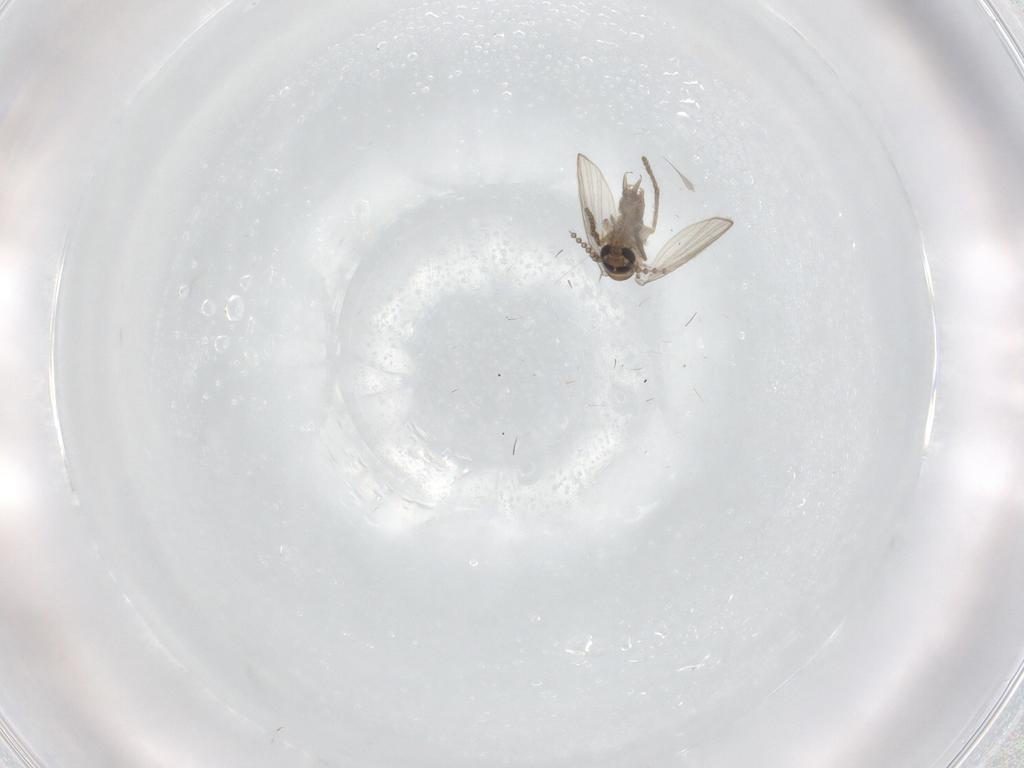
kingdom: Animalia
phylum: Arthropoda
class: Insecta
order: Diptera
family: Psychodidae
